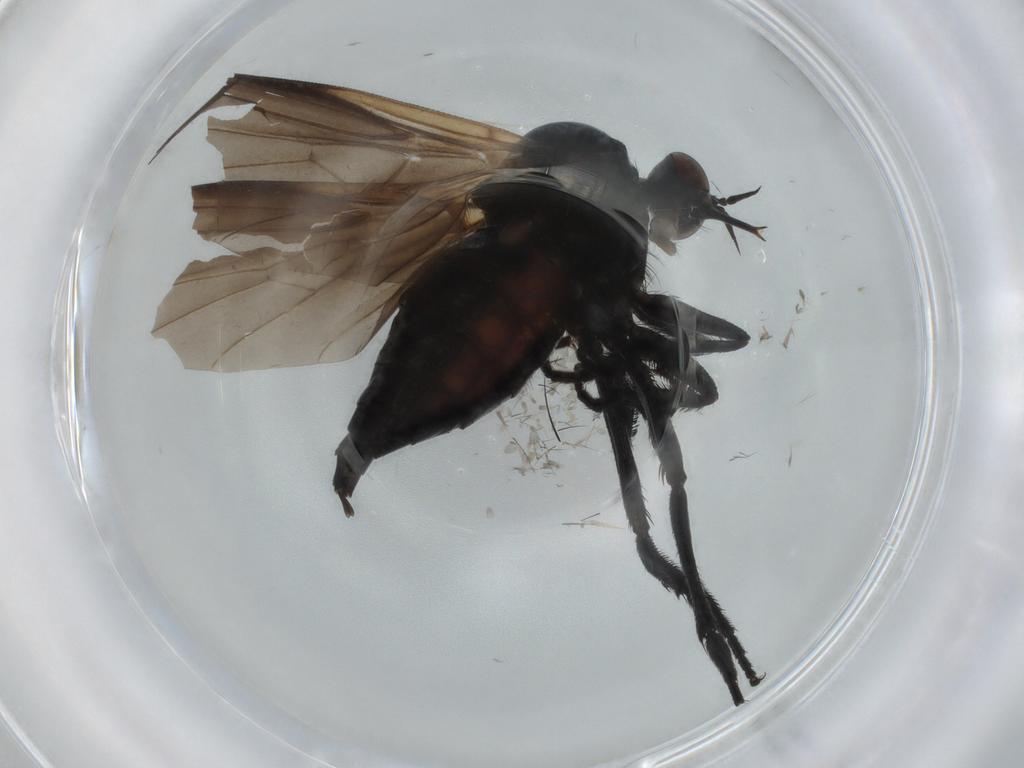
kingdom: Animalia
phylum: Arthropoda
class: Insecta
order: Diptera
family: Empididae
